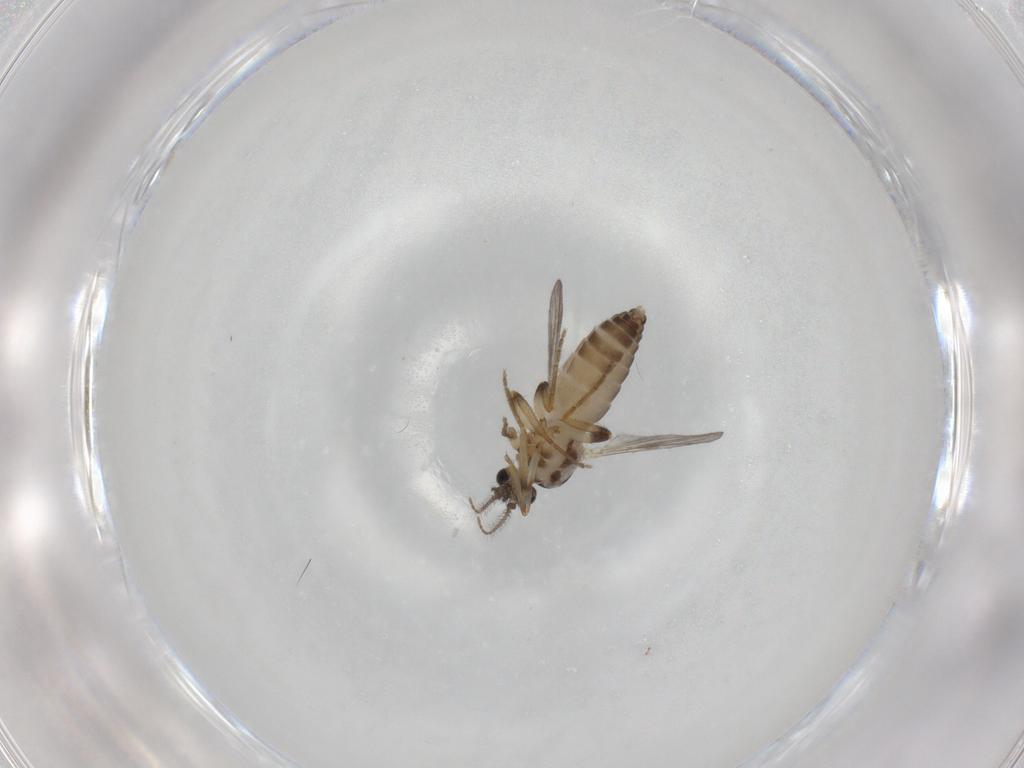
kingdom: Animalia
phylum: Arthropoda
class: Insecta
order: Diptera
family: Ceratopogonidae
